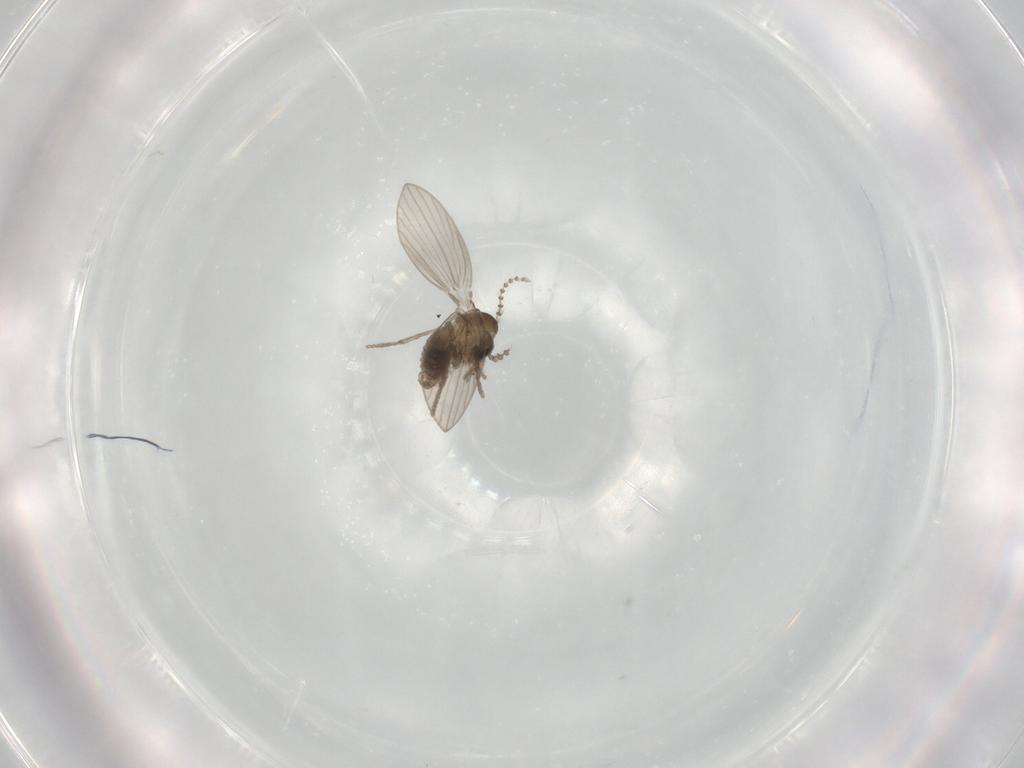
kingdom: Animalia
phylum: Arthropoda
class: Insecta
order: Diptera
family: Psychodidae
